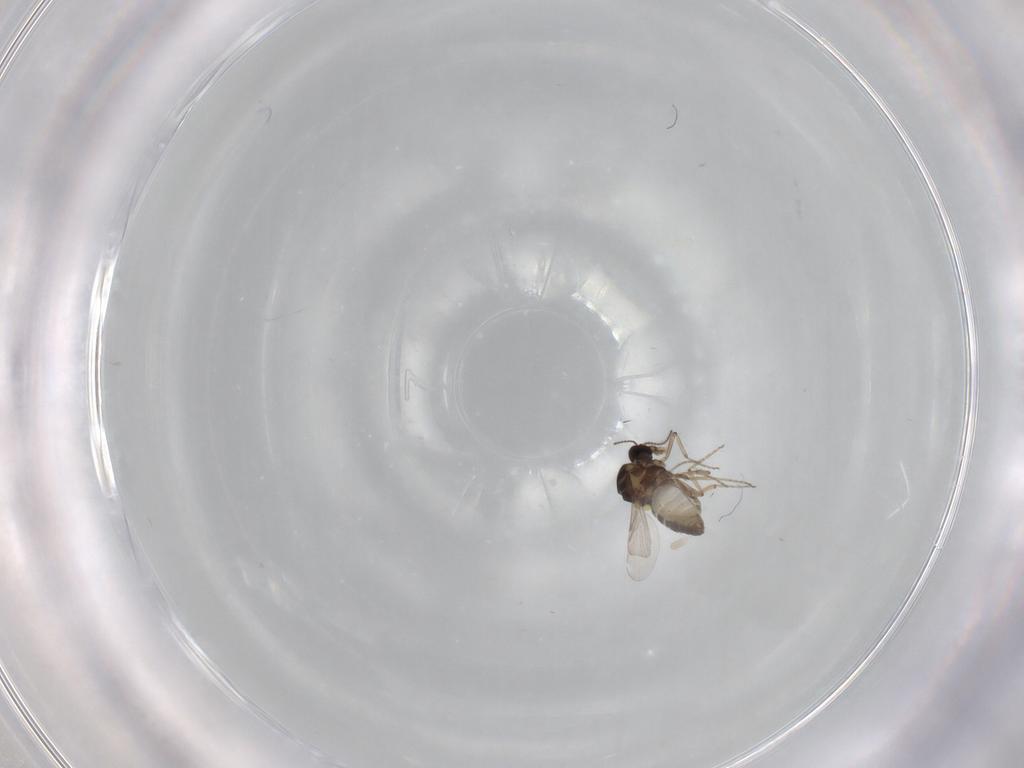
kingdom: Animalia
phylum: Arthropoda
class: Insecta
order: Diptera
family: Ceratopogonidae
